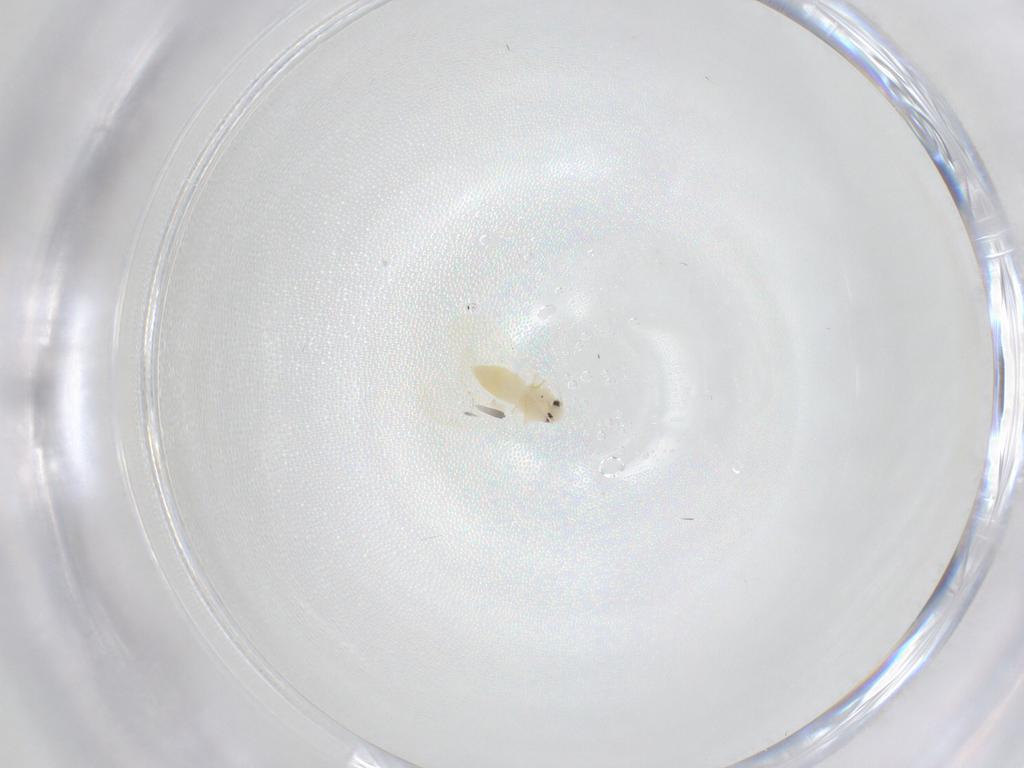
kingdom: Animalia
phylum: Arthropoda
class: Insecta
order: Hemiptera
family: Aleyrodidae
